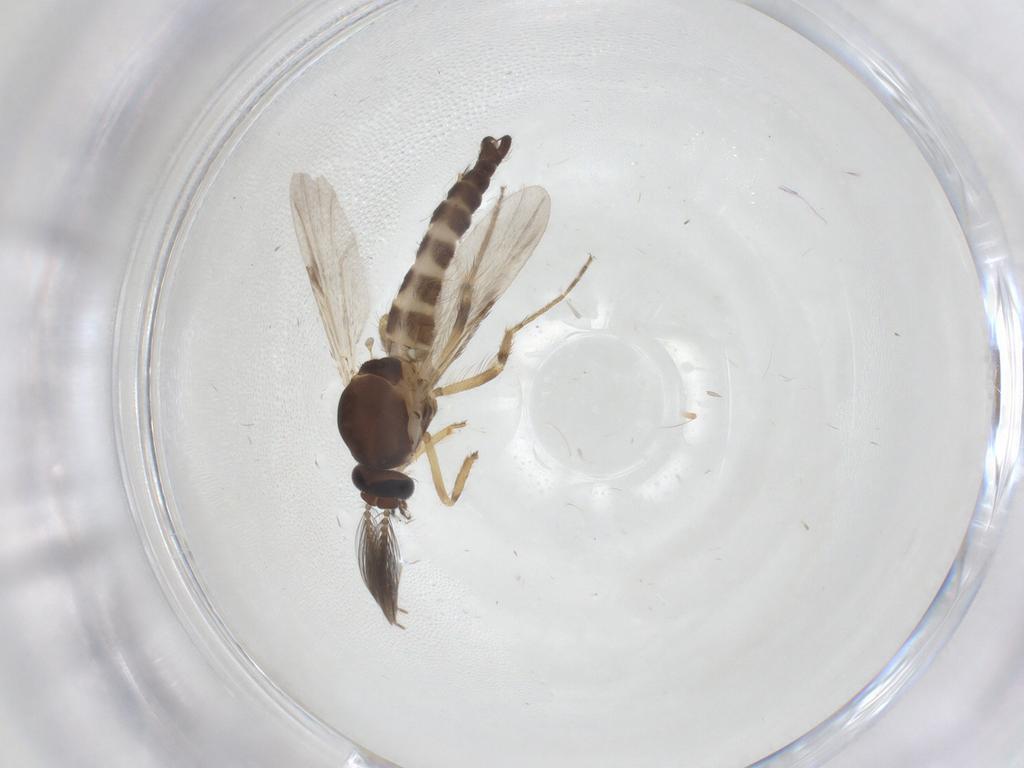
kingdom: Animalia
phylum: Arthropoda
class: Insecta
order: Diptera
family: Ceratopogonidae
